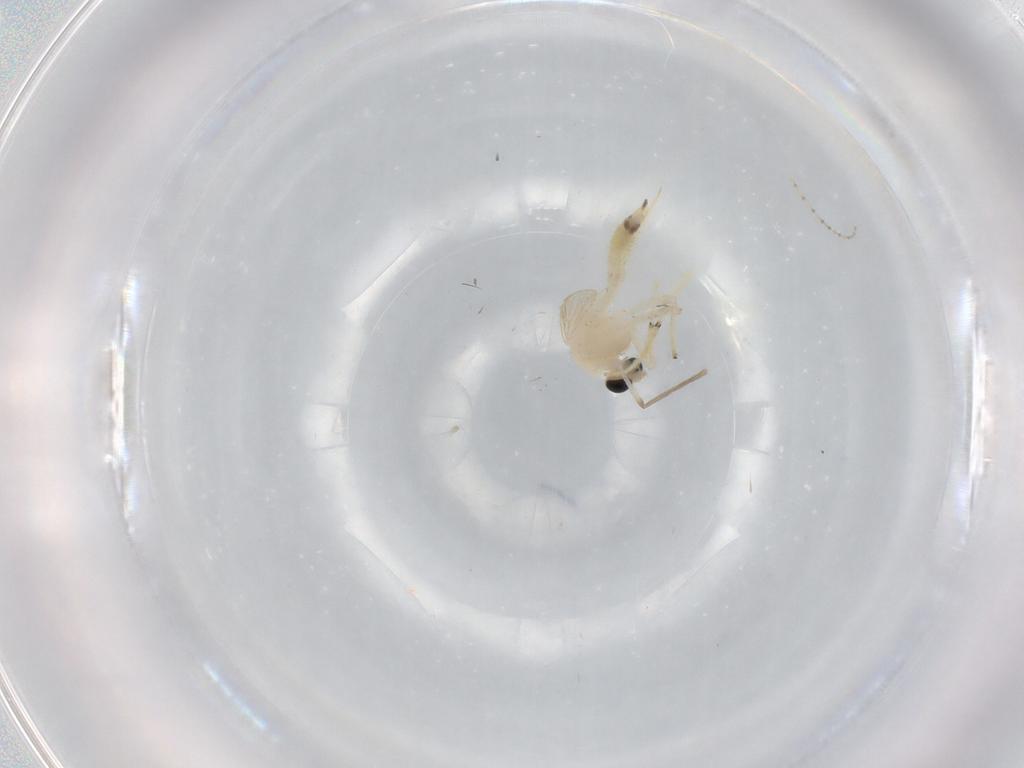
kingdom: Animalia
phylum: Arthropoda
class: Insecta
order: Diptera
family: Cecidomyiidae
